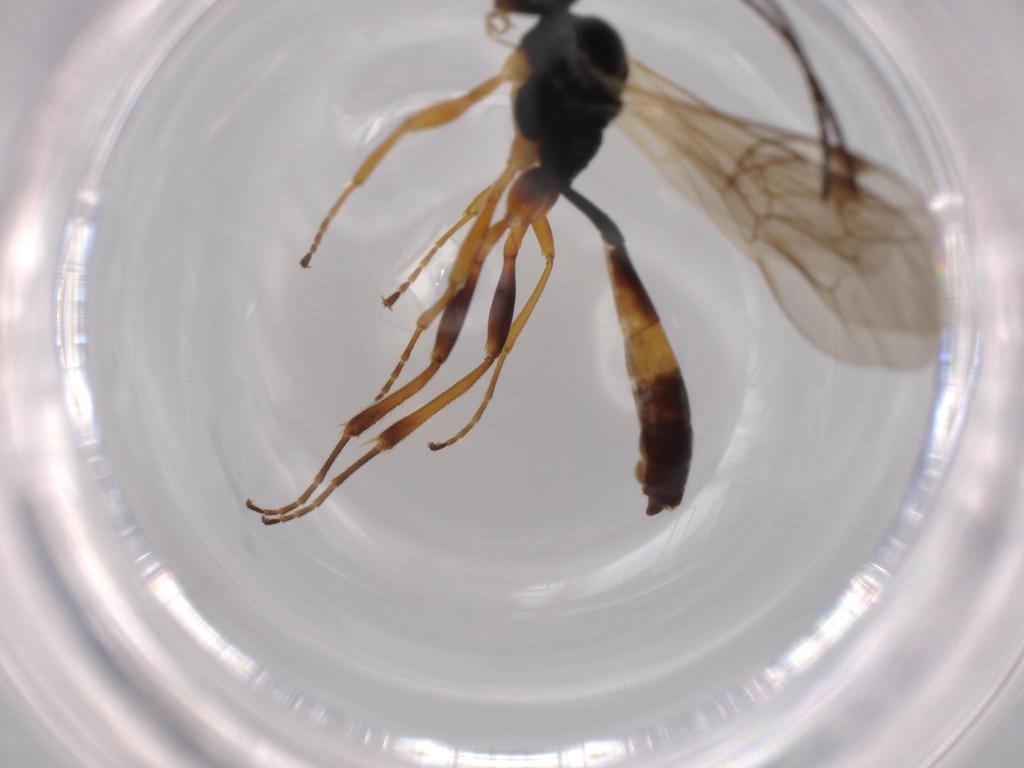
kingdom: Animalia
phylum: Arthropoda
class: Insecta
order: Hymenoptera
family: Ichneumonidae
